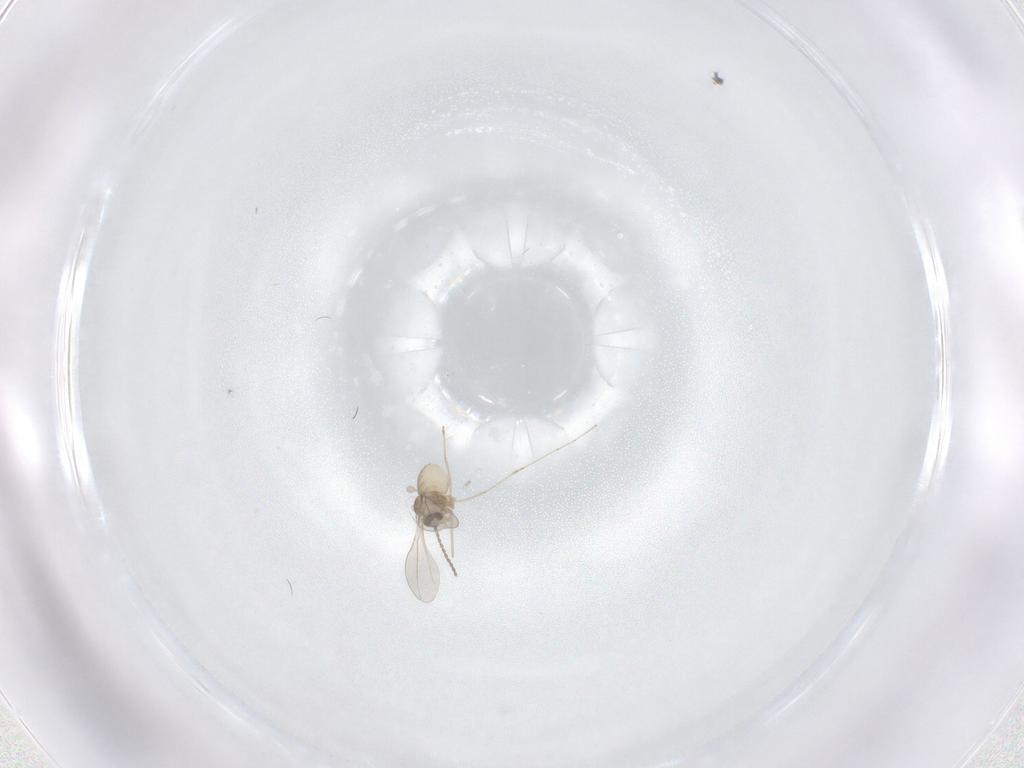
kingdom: Animalia
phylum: Arthropoda
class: Insecta
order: Diptera
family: Cecidomyiidae
